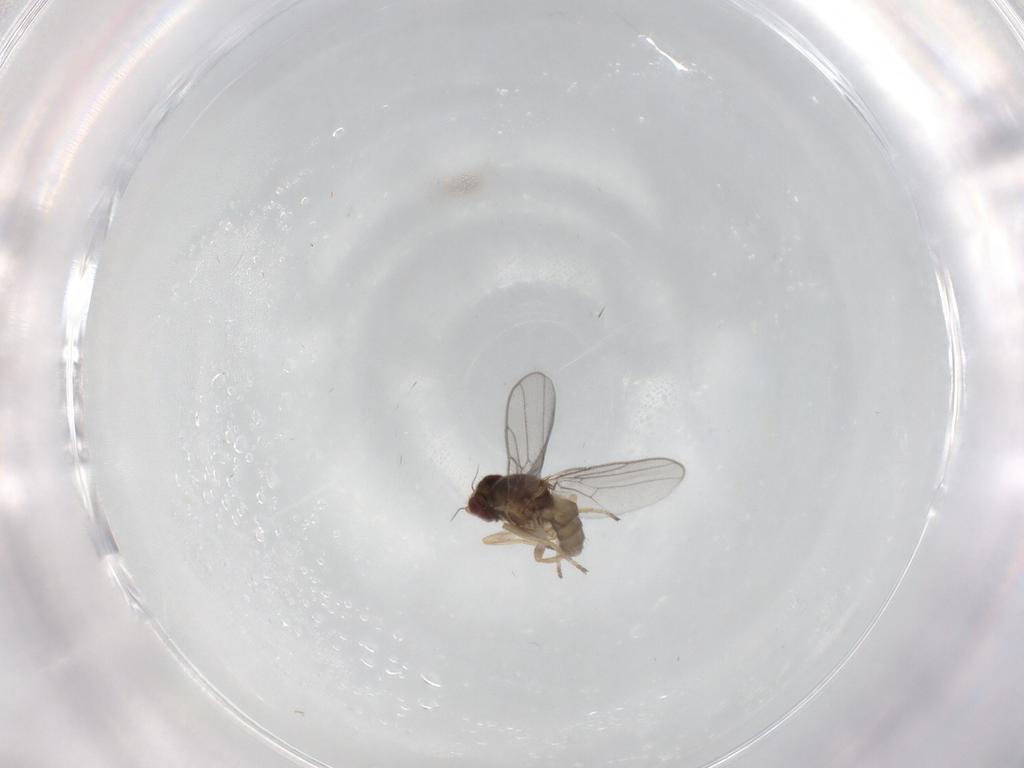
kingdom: Animalia
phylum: Arthropoda
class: Insecta
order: Diptera
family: Chloropidae
